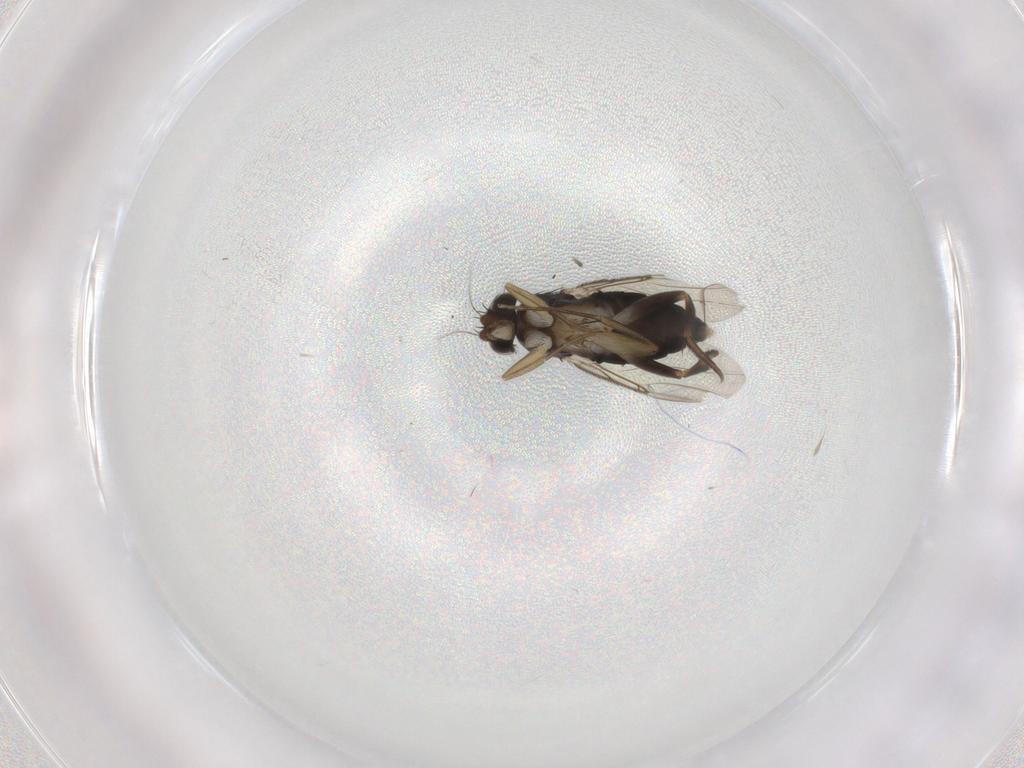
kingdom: Animalia
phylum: Arthropoda
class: Insecta
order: Diptera
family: Phoridae
